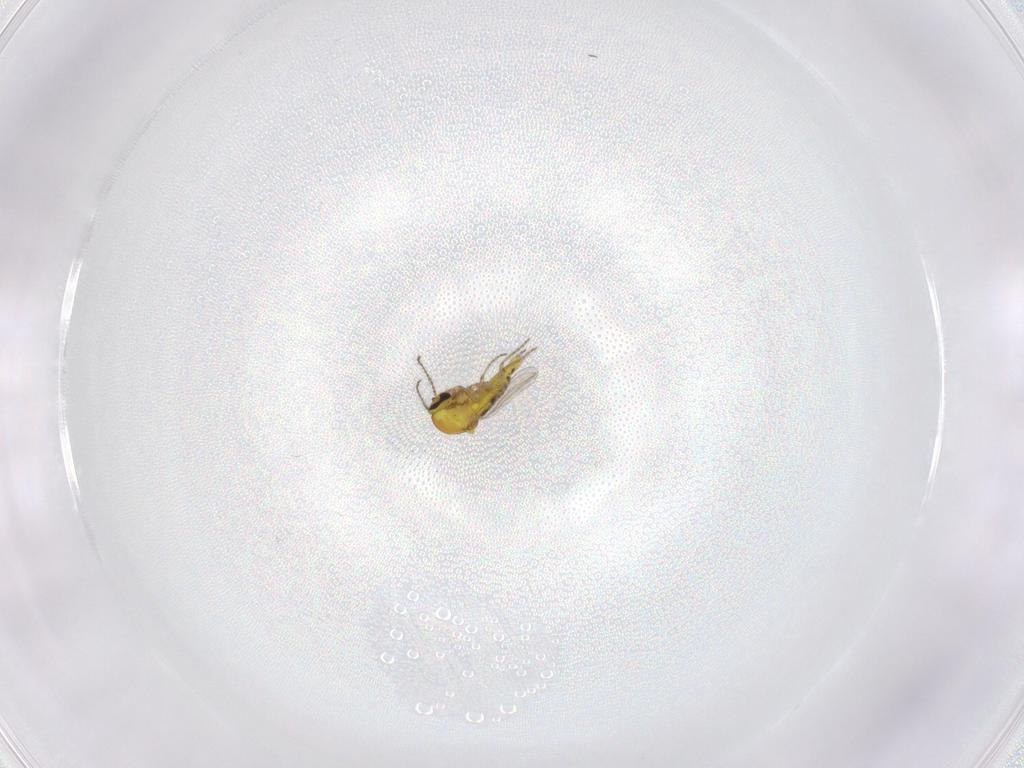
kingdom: Animalia
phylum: Arthropoda
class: Insecta
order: Diptera
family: Ceratopogonidae
